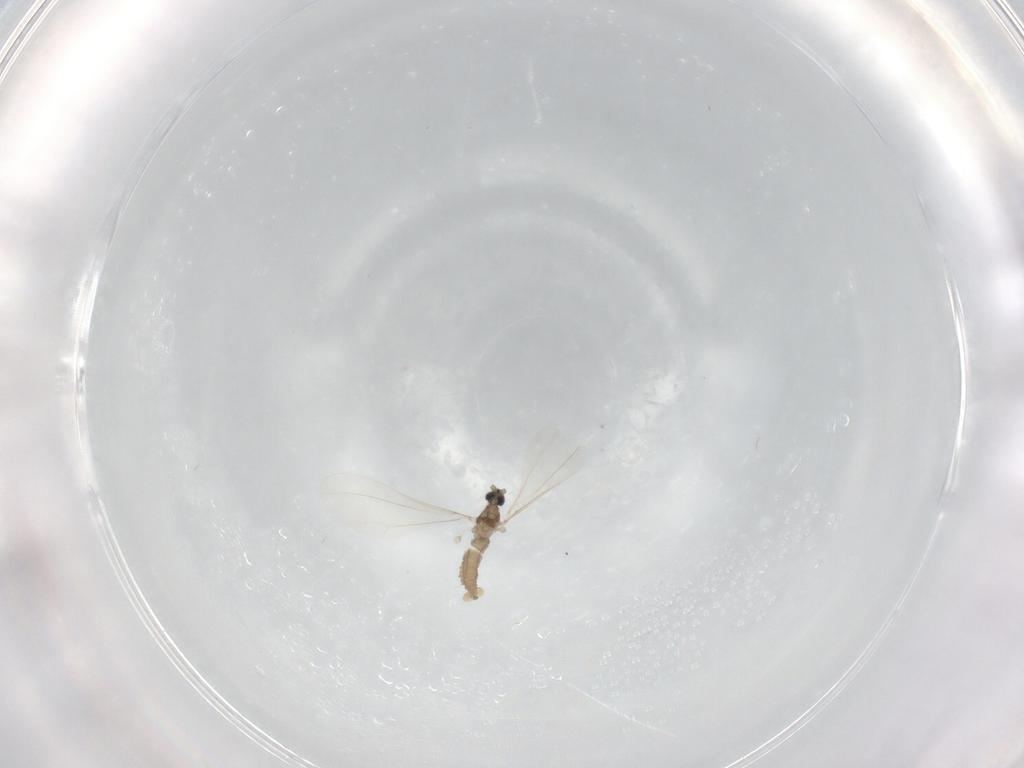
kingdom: Animalia
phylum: Arthropoda
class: Insecta
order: Diptera
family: Cecidomyiidae
